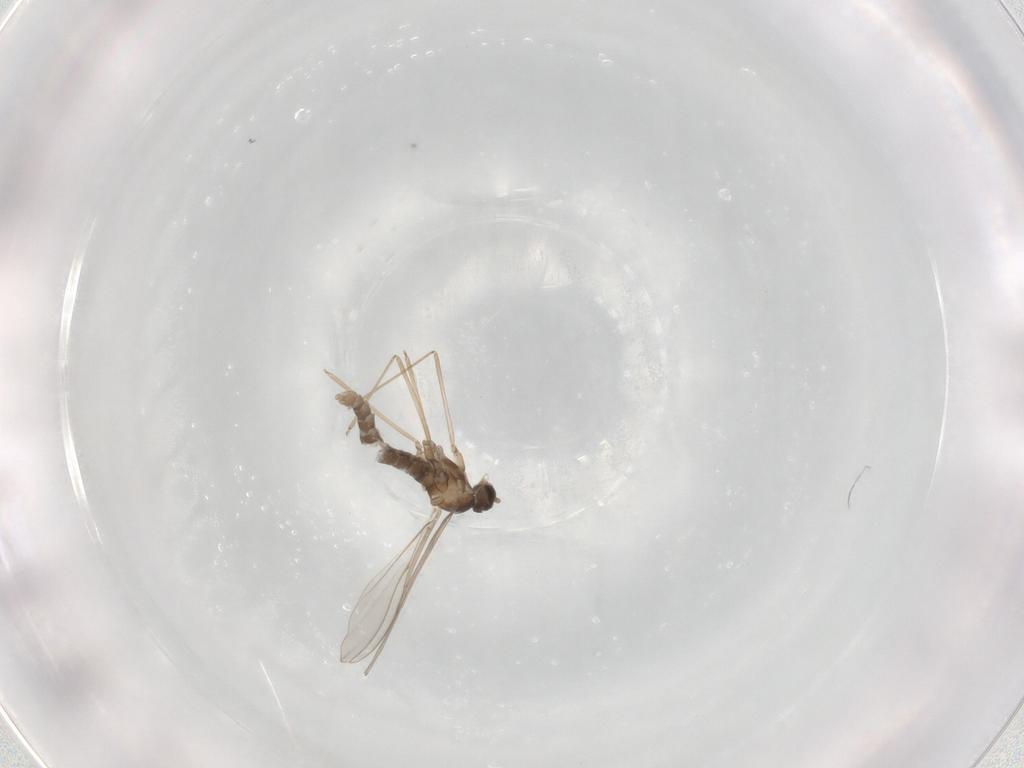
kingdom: Animalia
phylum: Arthropoda
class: Insecta
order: Diptera
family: Cecidomyiidae
